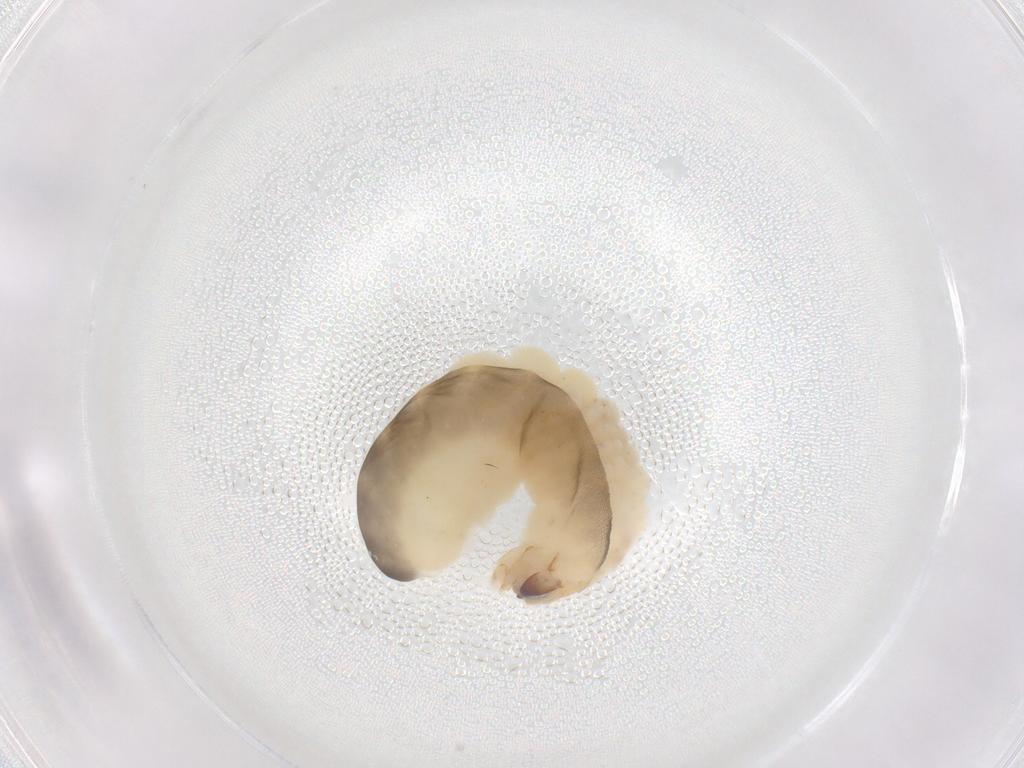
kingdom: Animalia
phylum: Arthropoda
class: Insecta
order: Hymenoptera
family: Dryinidae
